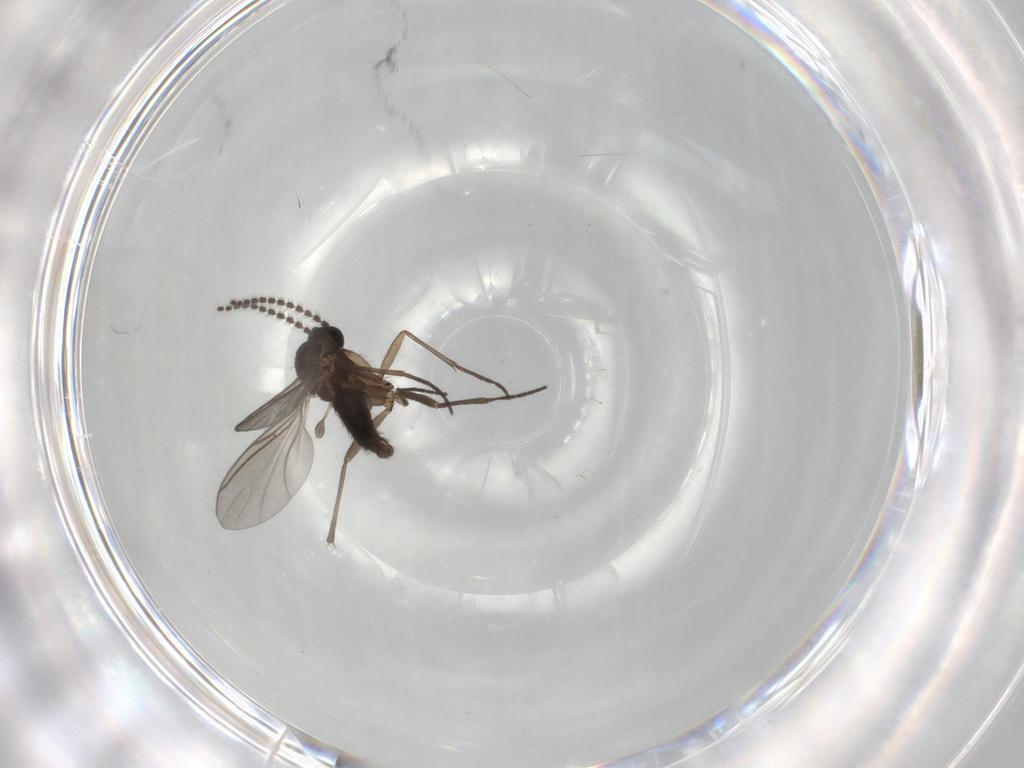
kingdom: Animalia
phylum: Arthropoda
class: Insecta
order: Diptera
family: Sciaridae
